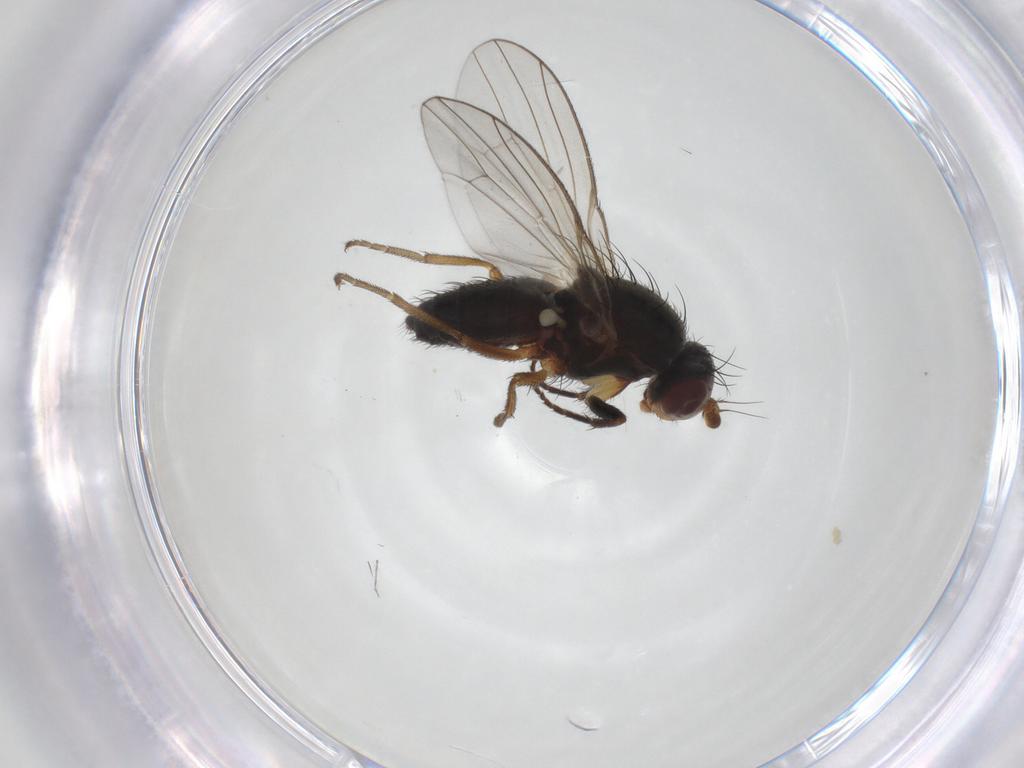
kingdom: Animalia
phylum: Arthropoda
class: Insecta
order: Diptera
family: Heleomyzidae
